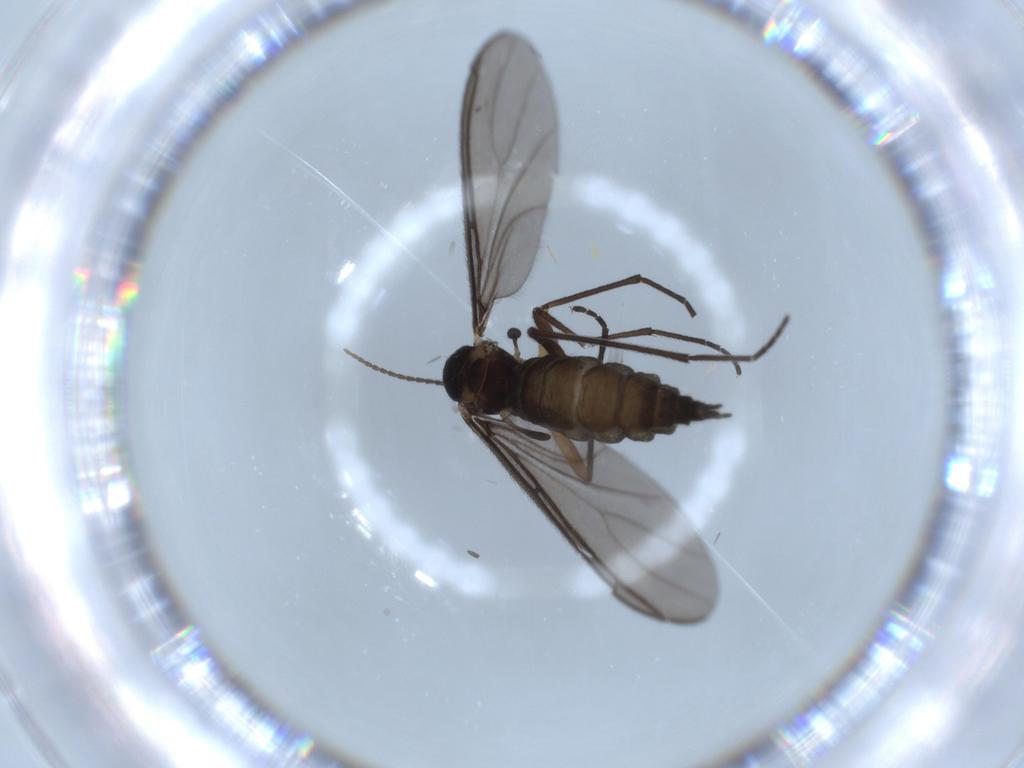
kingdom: Animalia
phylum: Arthropoda
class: Insecta
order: Diptera
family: Sciaridae
